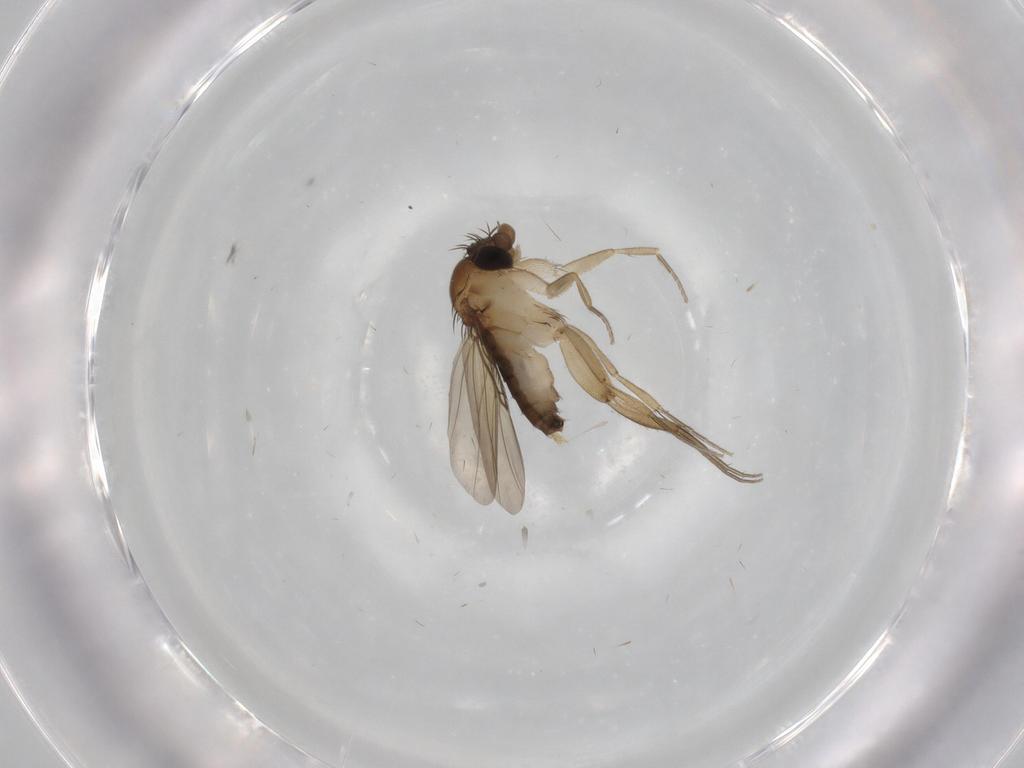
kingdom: Animalia
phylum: Arthropoda
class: Insecta
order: Diptera
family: Phoridae
